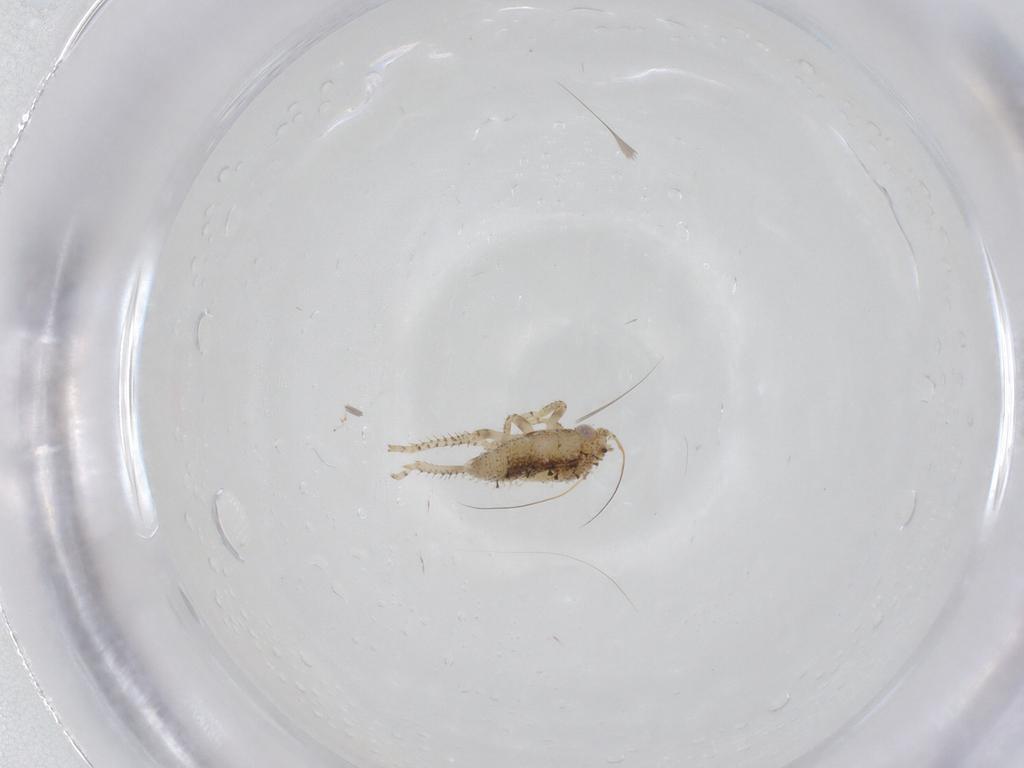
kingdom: Animalia
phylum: Arthropoda
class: Insecta
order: Hemiptera
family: Cicadellidae
